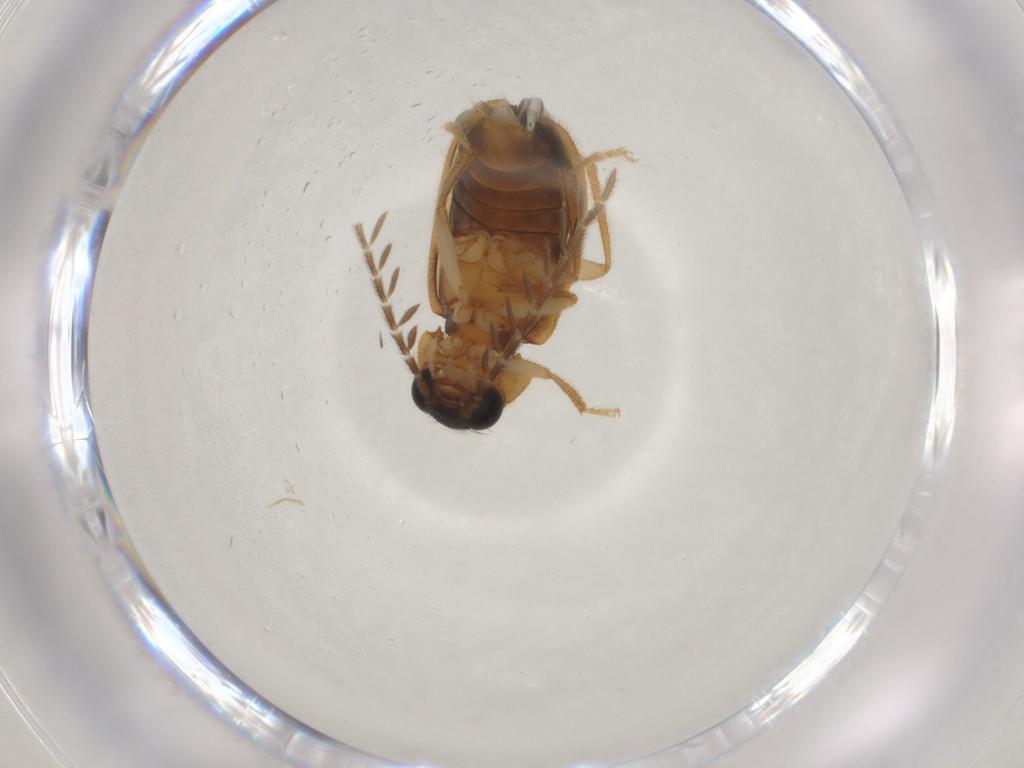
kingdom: Animalia
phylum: Arthropoda
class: Insecta
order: Coleoptera
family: Ptilodactylidae
